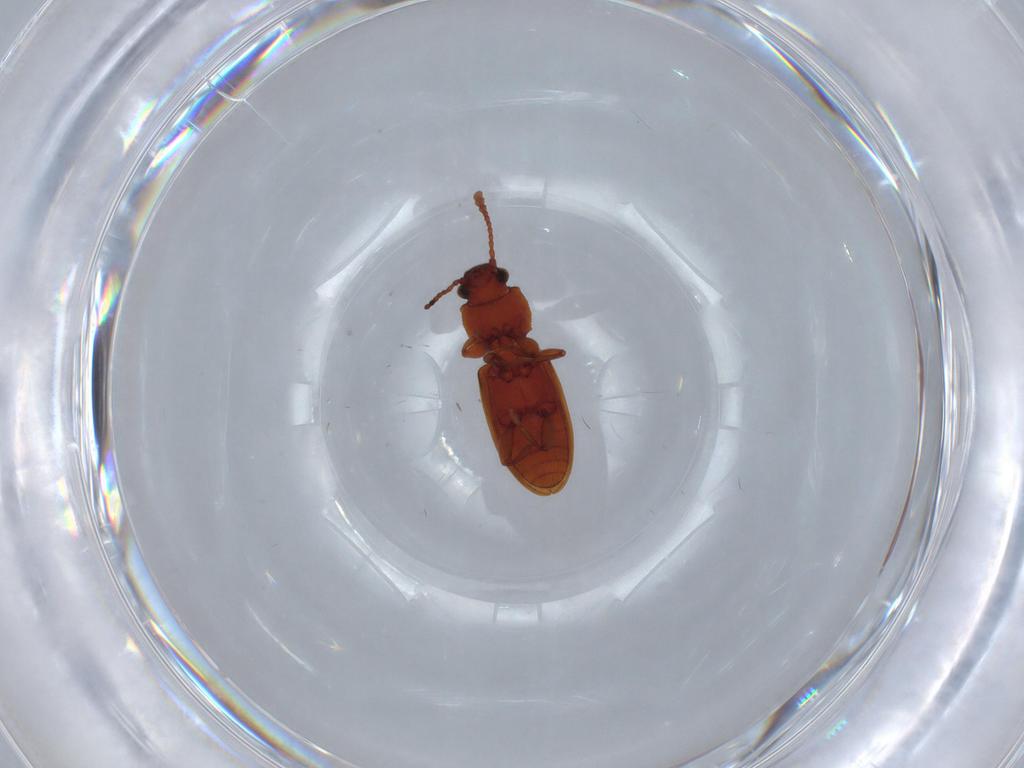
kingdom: Animalia
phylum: Arthropoda
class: Insecta
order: Coleoptera
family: Silvanidae
